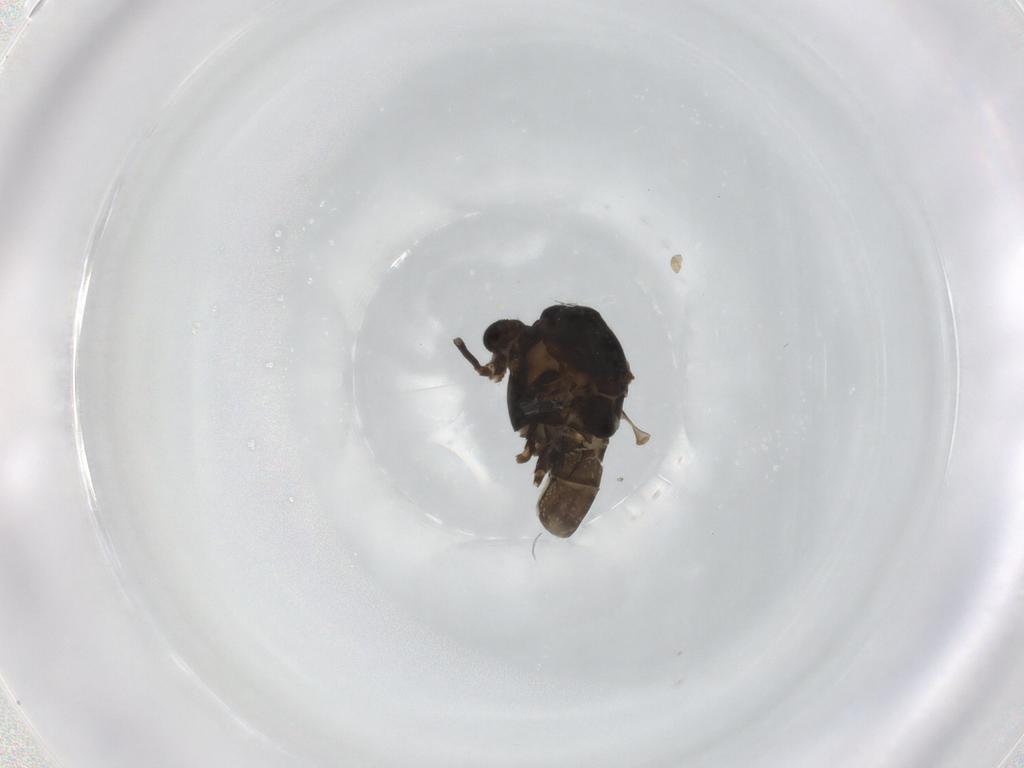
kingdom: Animalia
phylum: Arthropoda
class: Insecta
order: Diptera
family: Chironomidae
